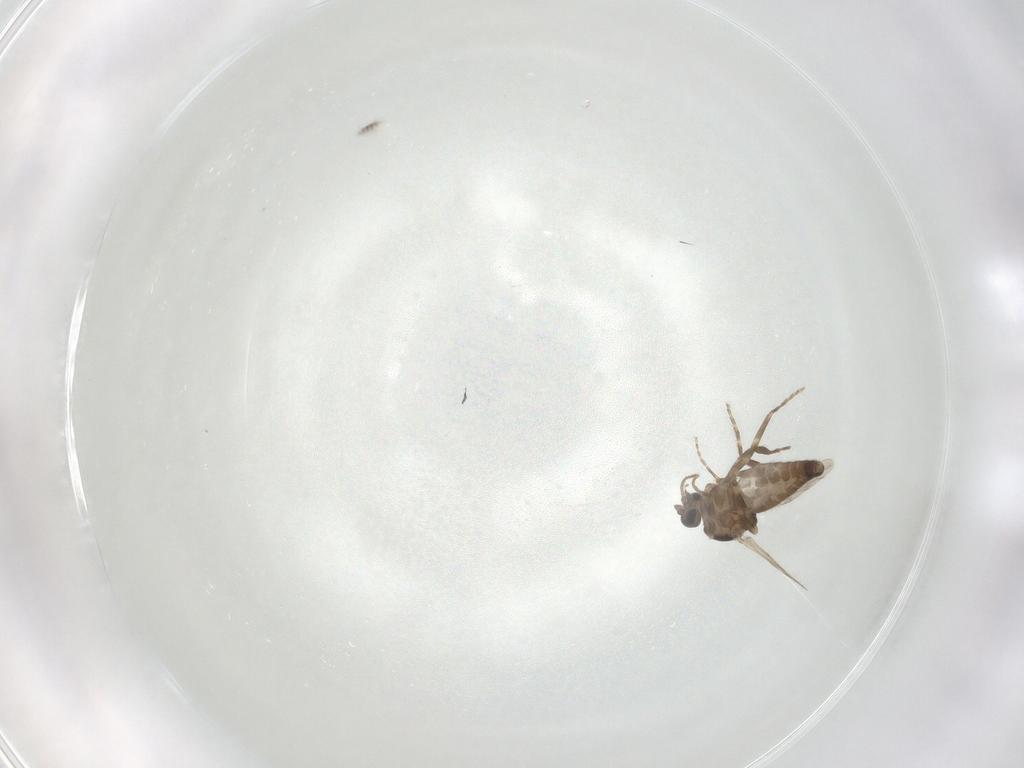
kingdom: Animalia
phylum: Arthropoda
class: Insecta
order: Diptera
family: Ceratopogonidae
